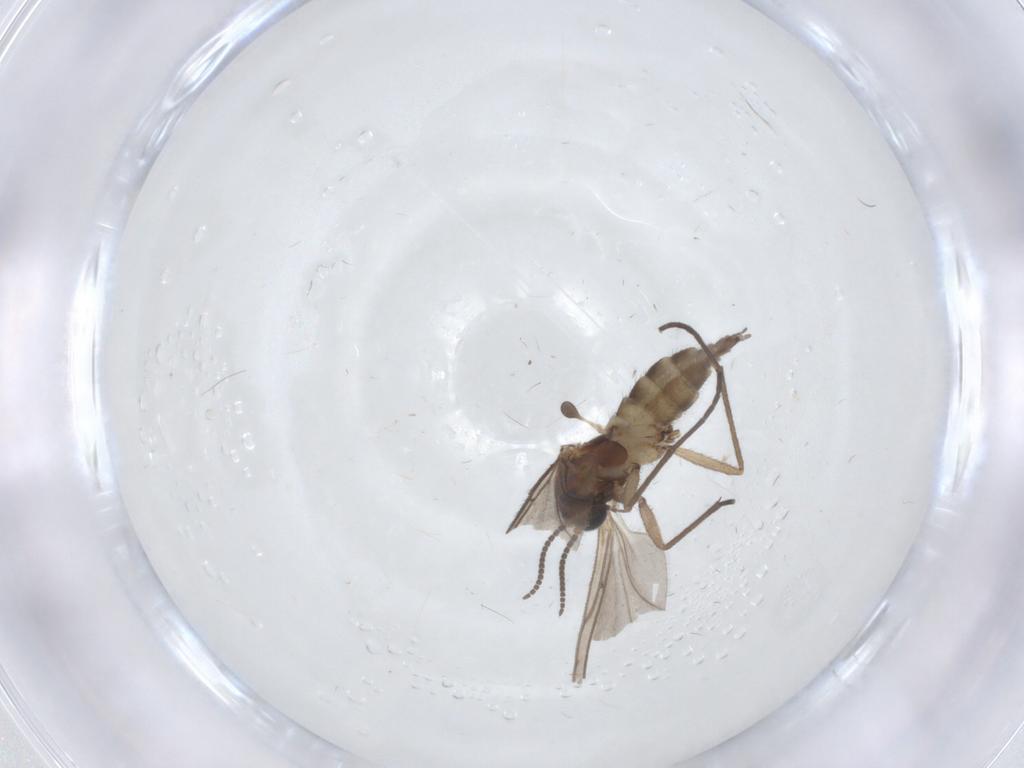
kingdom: Animalia
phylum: Arthropoda
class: Insecta
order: Diptera
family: Sciaridae
